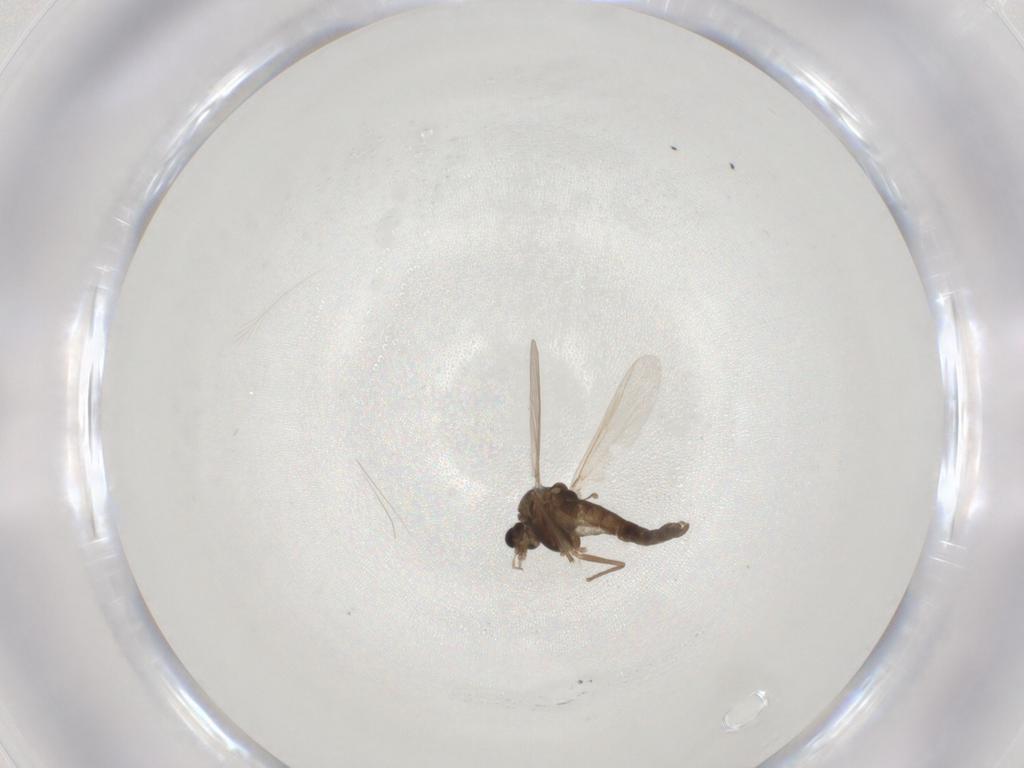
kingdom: Animalia
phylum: Arthropoda
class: Insecta
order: Diptera
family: Chironomidae
